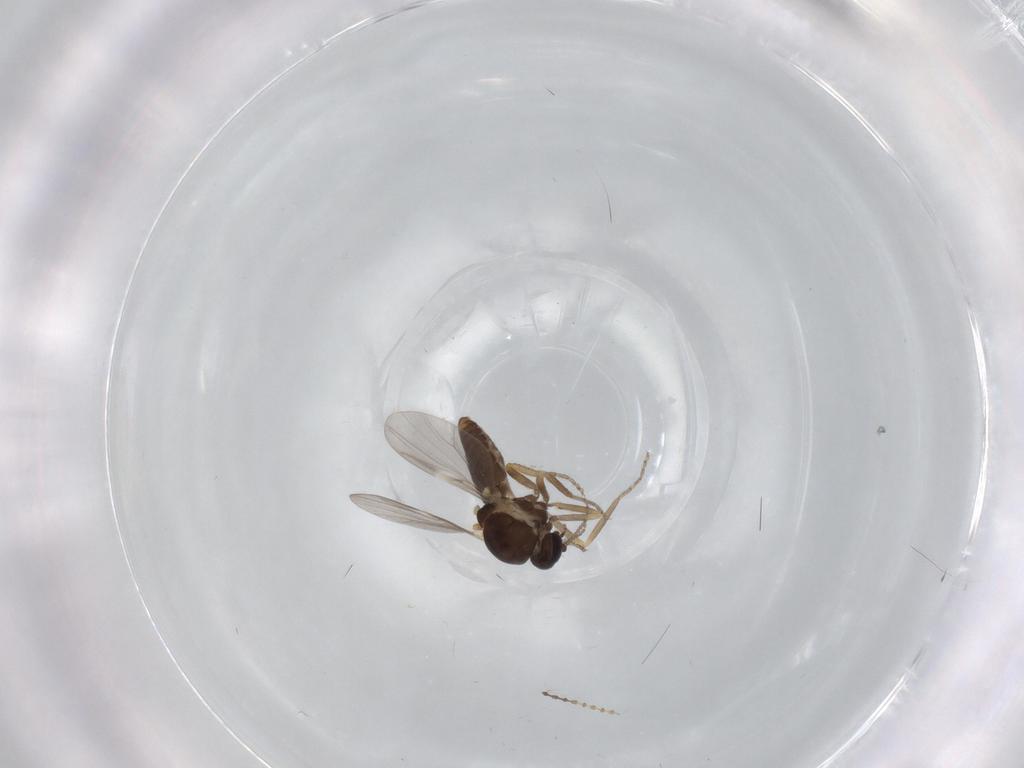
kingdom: Animalia
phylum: Arthropoda
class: Insecta
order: Diptera
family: Ceratopogonidae
